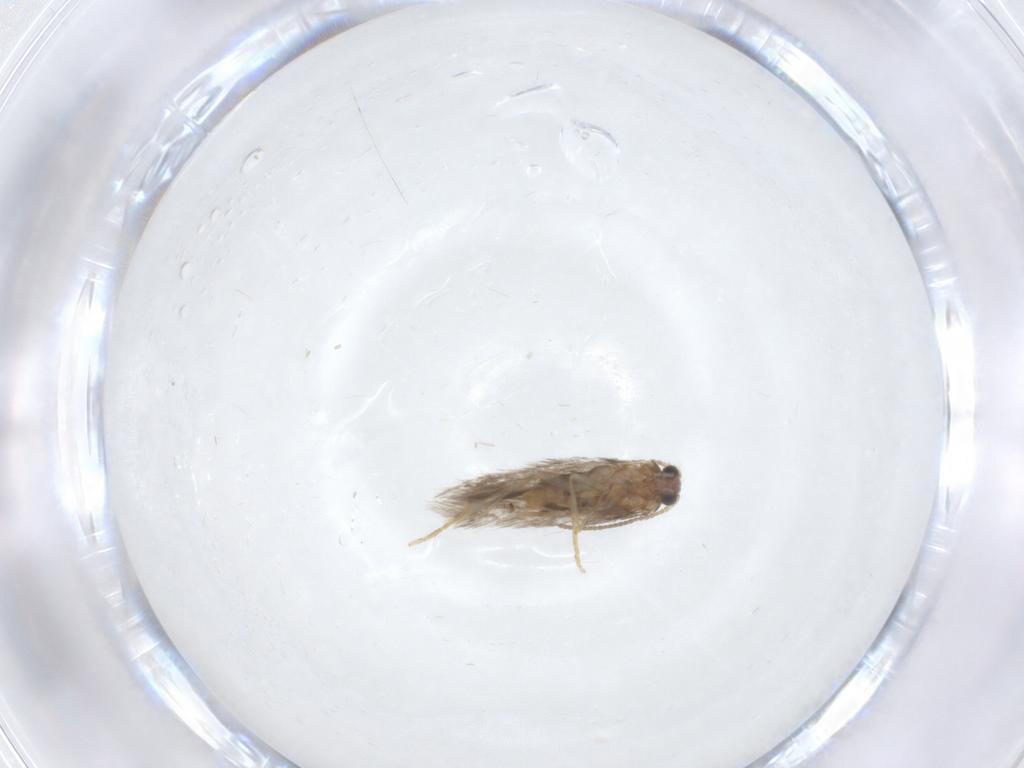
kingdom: Animalia
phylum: Arthropoda
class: Insecta
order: Lepidoptera
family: Nepticulidae
